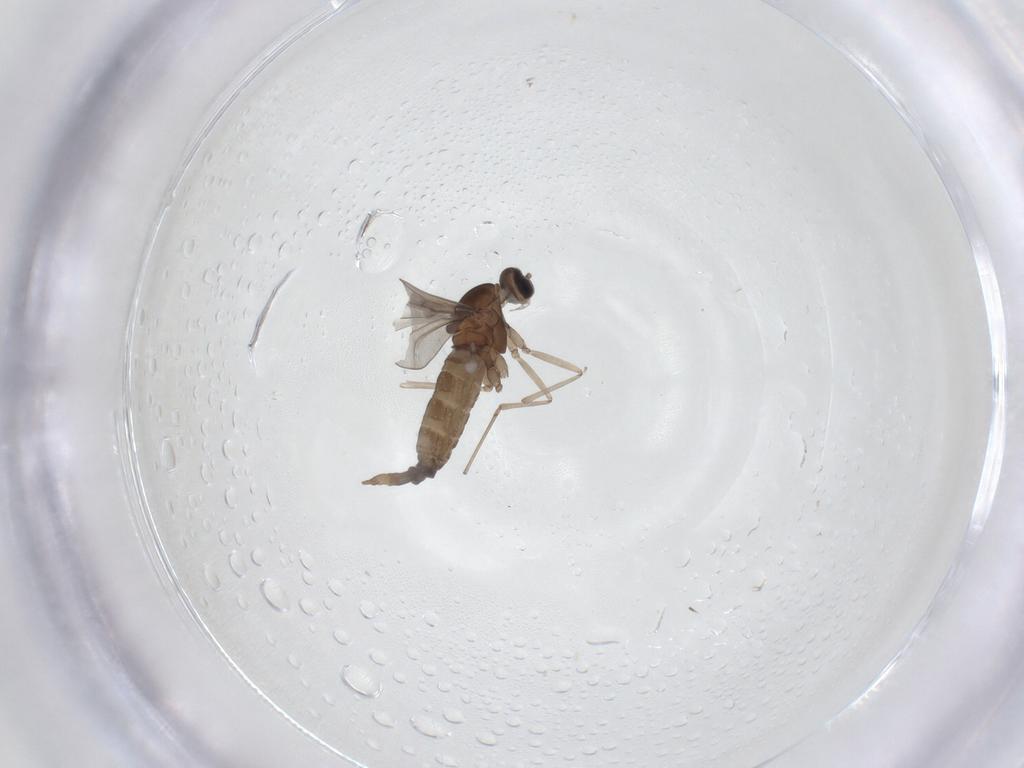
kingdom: Animalia
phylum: Arthropoda
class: Insecta
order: Diptera
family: Cecidomyiidae
